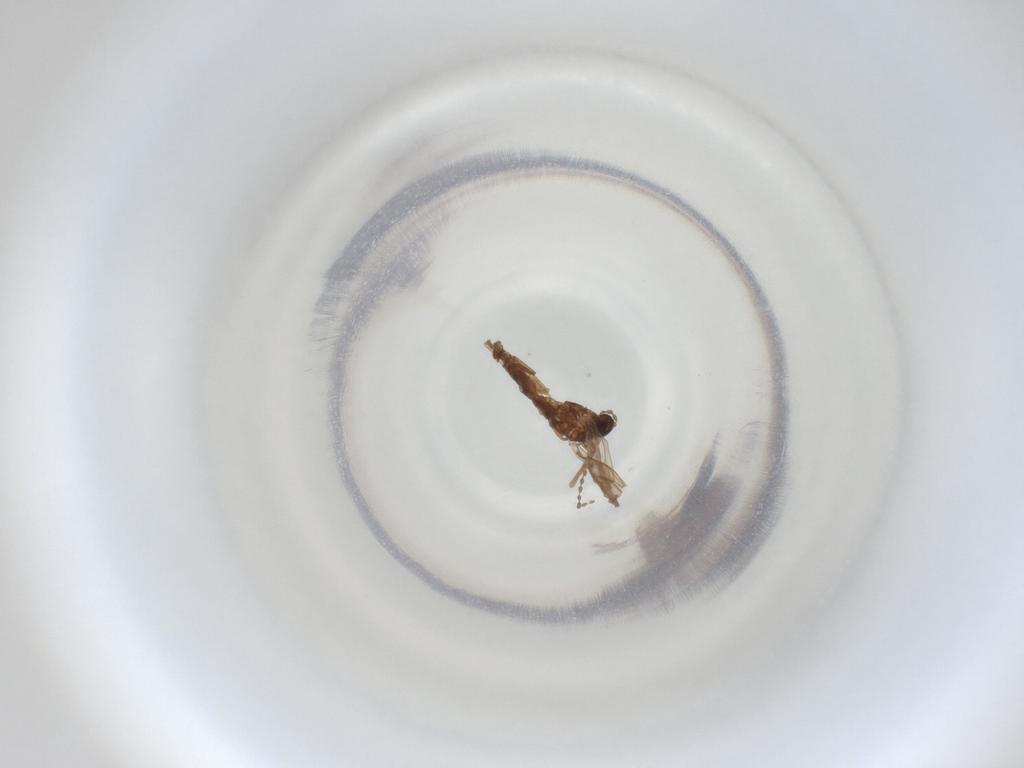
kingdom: Animalia
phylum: Arthropoda
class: Insecta
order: Diptera
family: Cecidomyiidae
